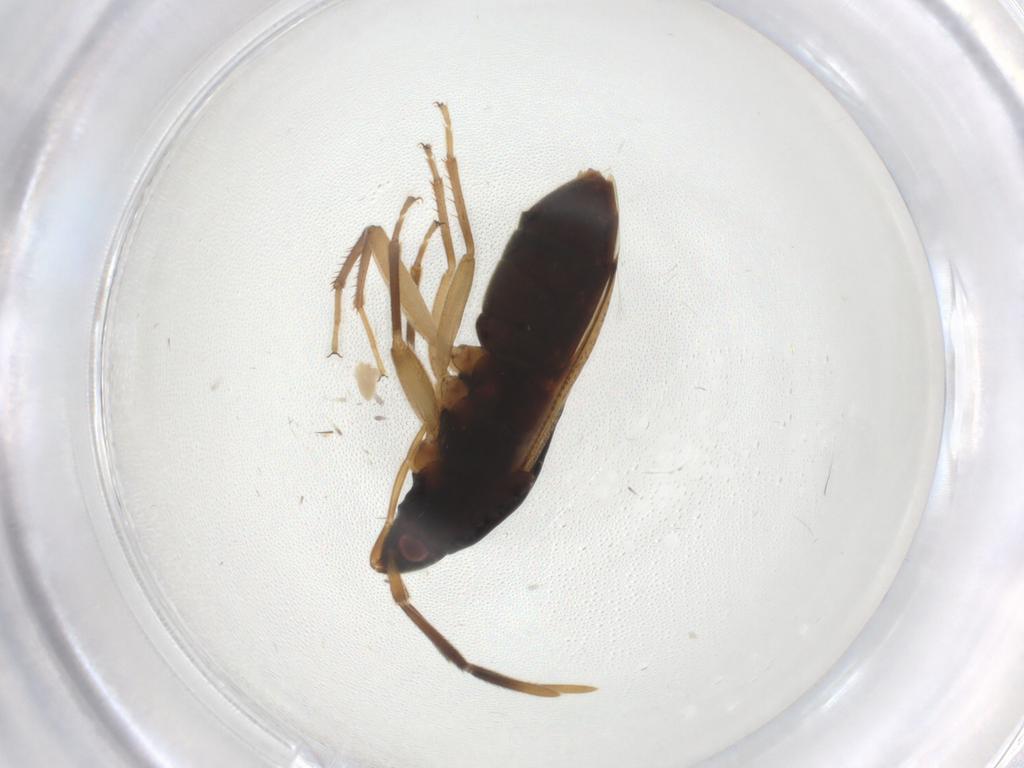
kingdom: Animalia
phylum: Arthropoda
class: Insecta
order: Hemiptera
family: Rhyparochromidae
